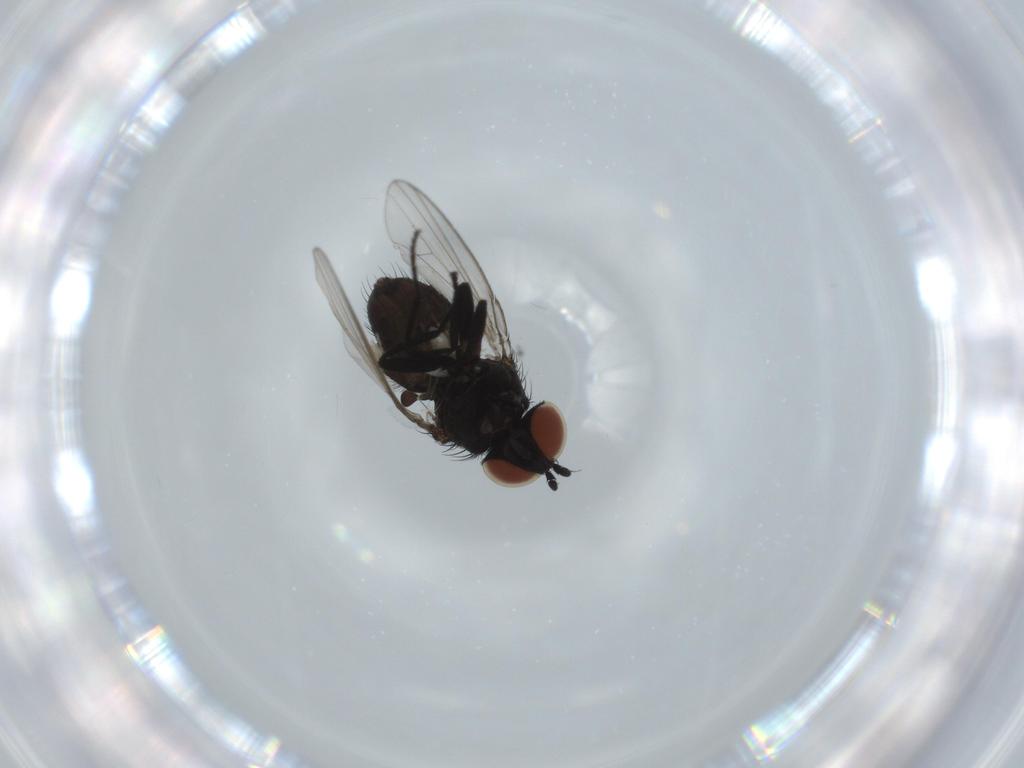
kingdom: Animalia
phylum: Arthropoda
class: Insecta
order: Diptera
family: Milichiidae
